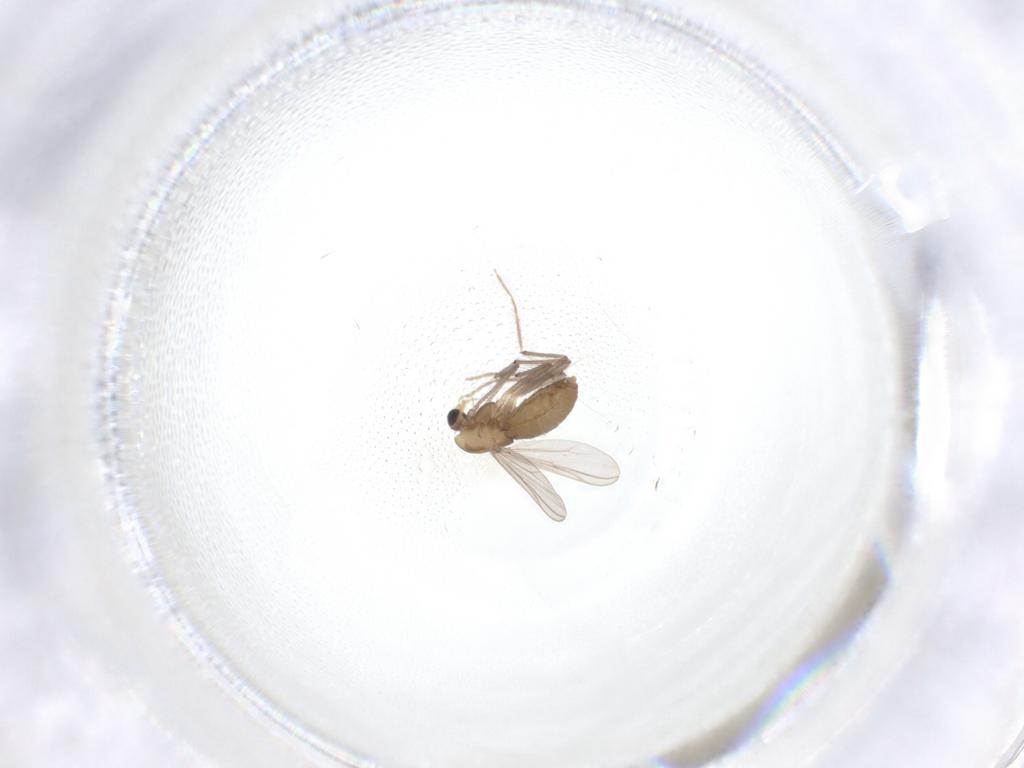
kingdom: Animalia
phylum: Arthropoda
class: Insecta
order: Diptera
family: Chironomidae
